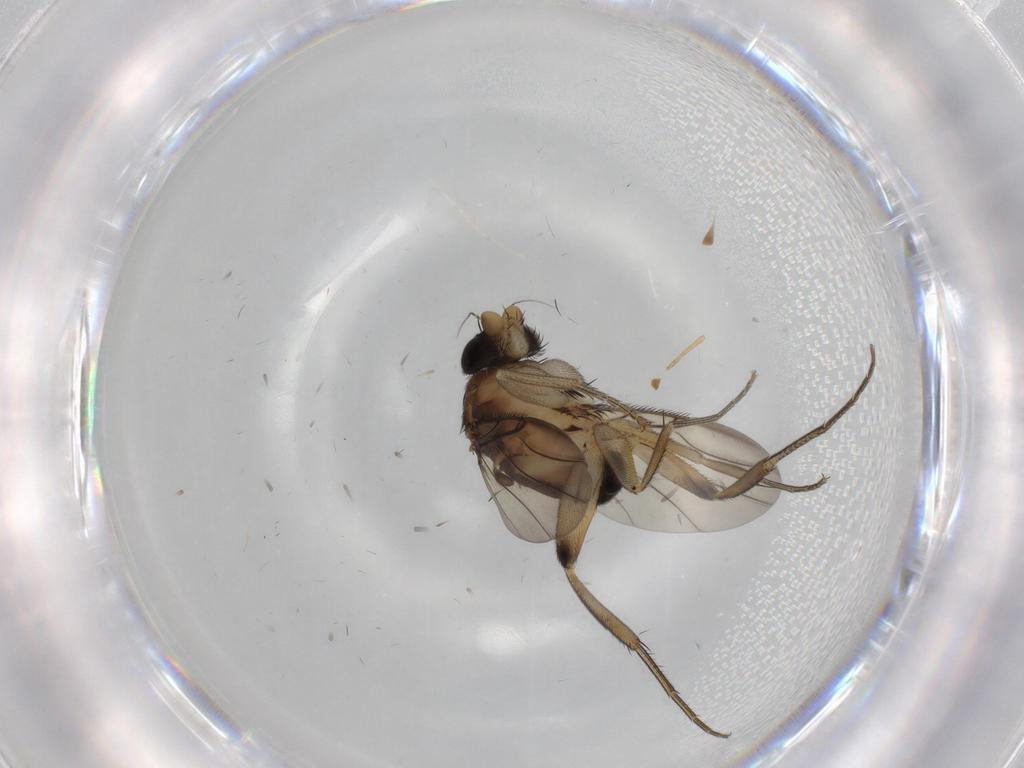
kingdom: Animalia
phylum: Arthropoda
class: Insecta
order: Diptera
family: Phoridae
